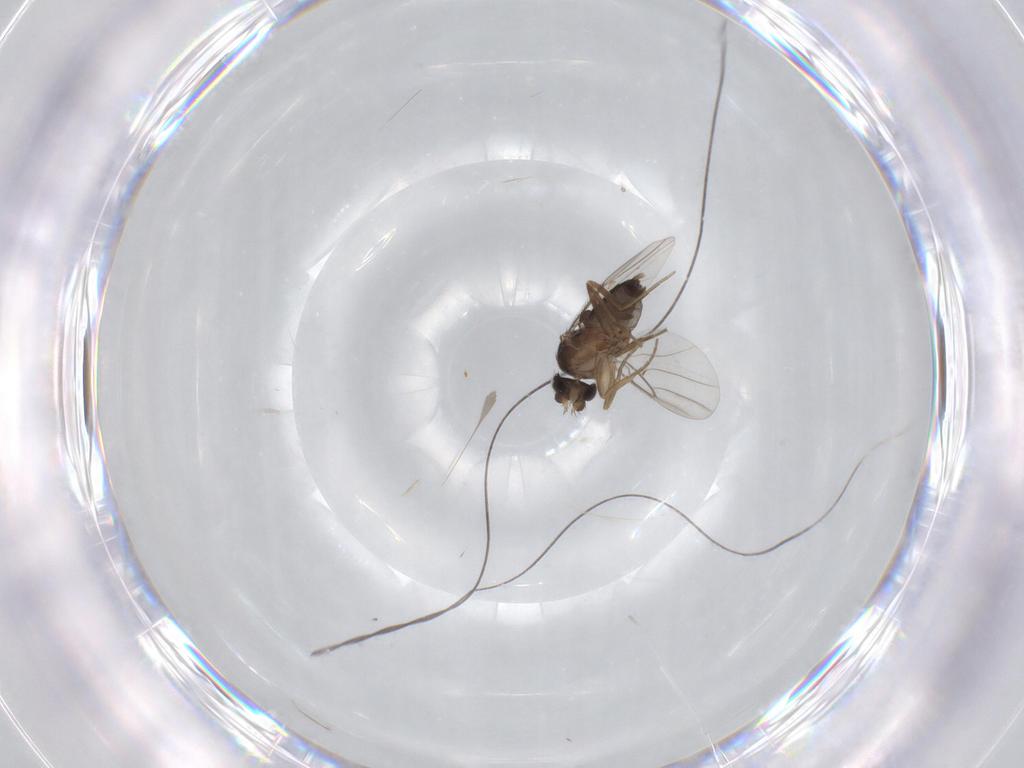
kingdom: Animalia
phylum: Arthropoda
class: Insecta
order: Diptera
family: Phoridae
